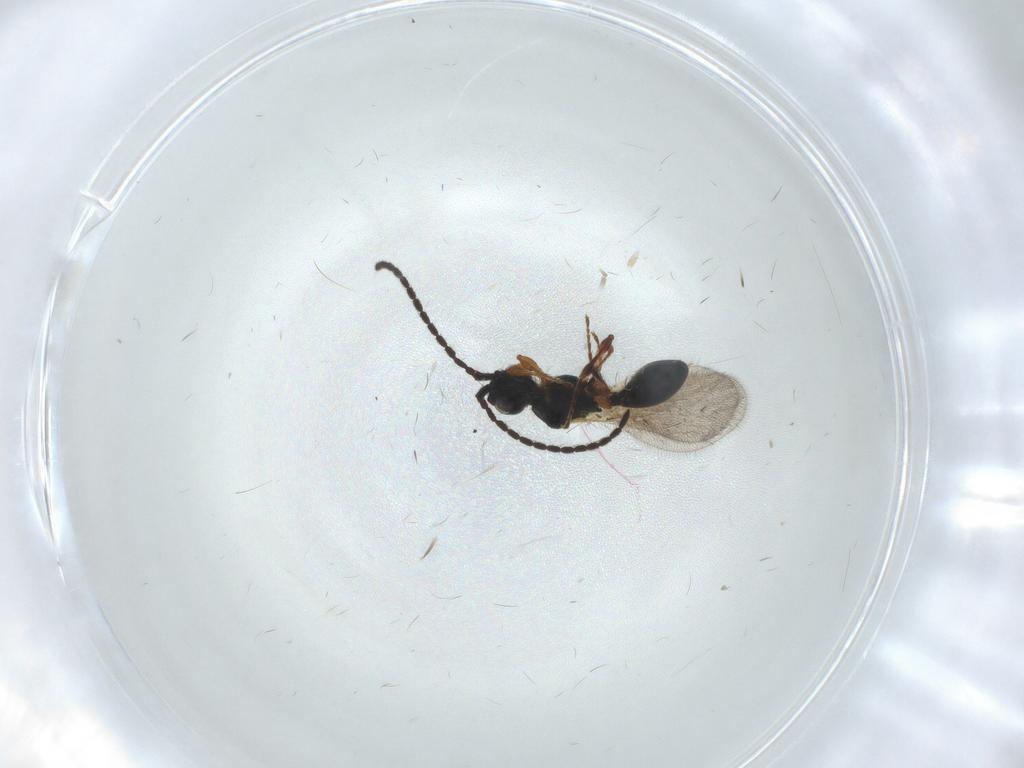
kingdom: Animalia
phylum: Arthropoda
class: Insecta
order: Hymenoptera
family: Diapriidae
